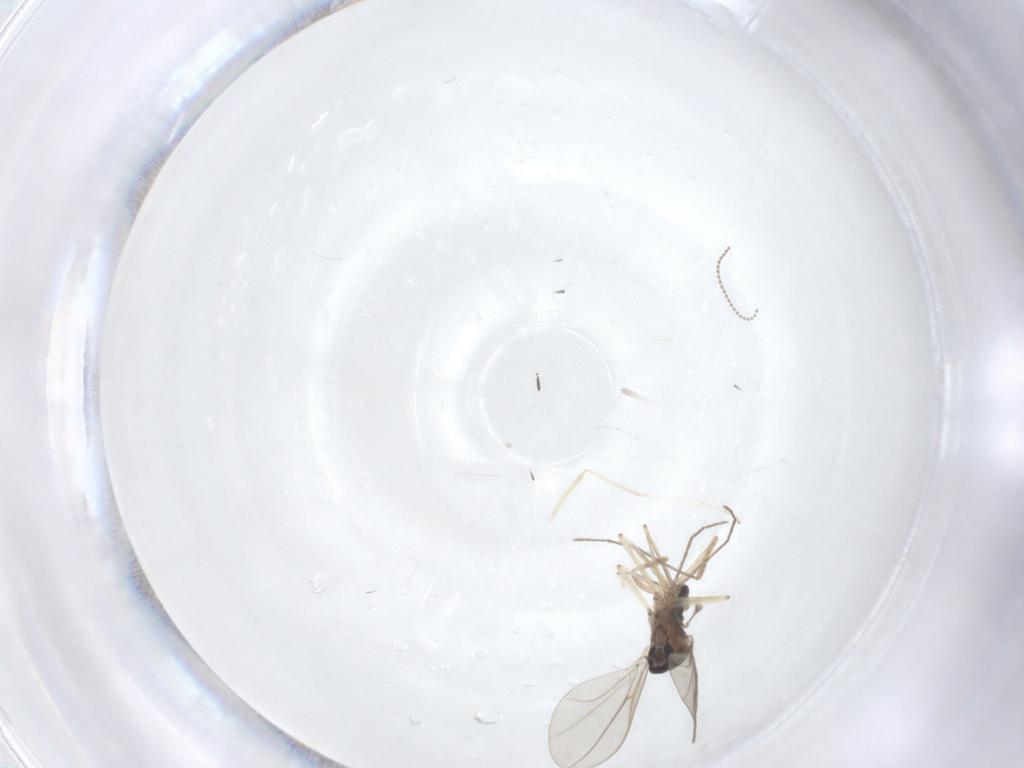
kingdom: Animalia
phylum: Arthropoda
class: Insecta
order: Diptera
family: Cecidomyiidae
